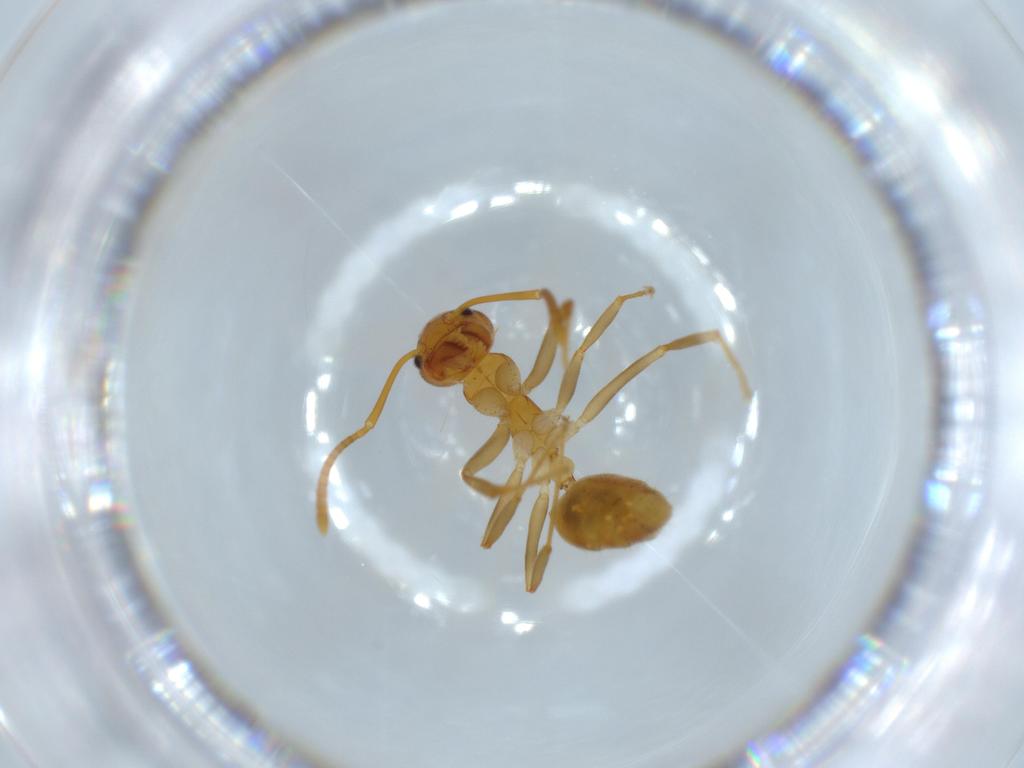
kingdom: Animalia
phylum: Arthropoda
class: Insecta
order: Hymenoptera
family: Formicidae
